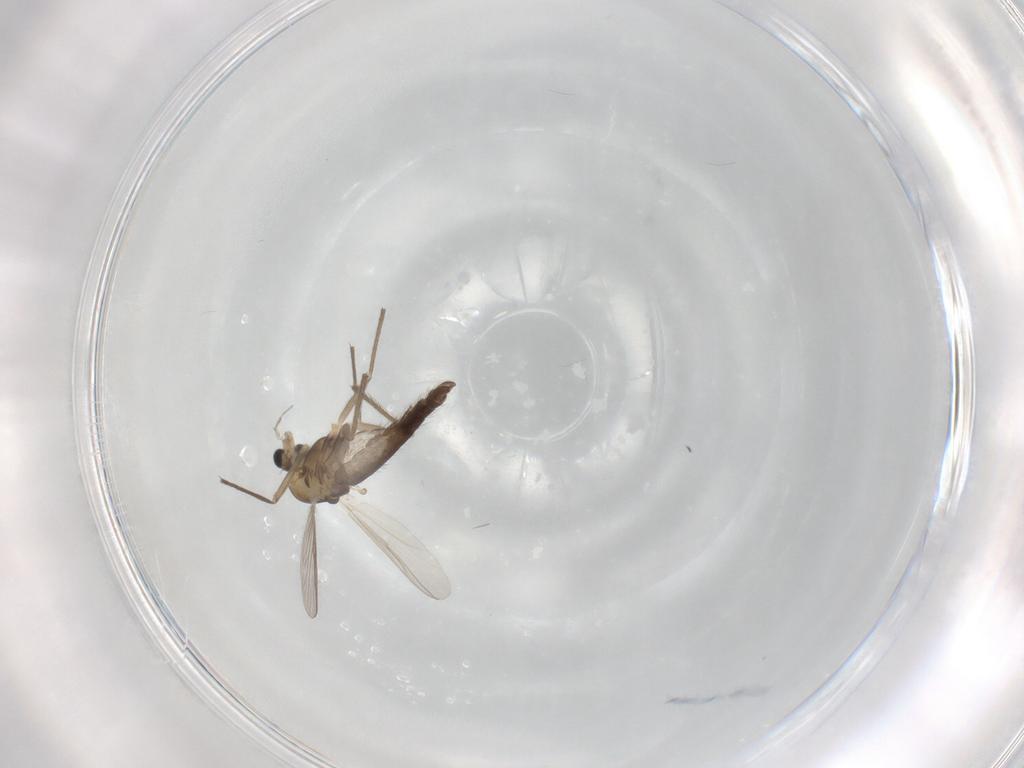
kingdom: Animalia
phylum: Arthropoda
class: Insecta
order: Diptera
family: Chironomidae
